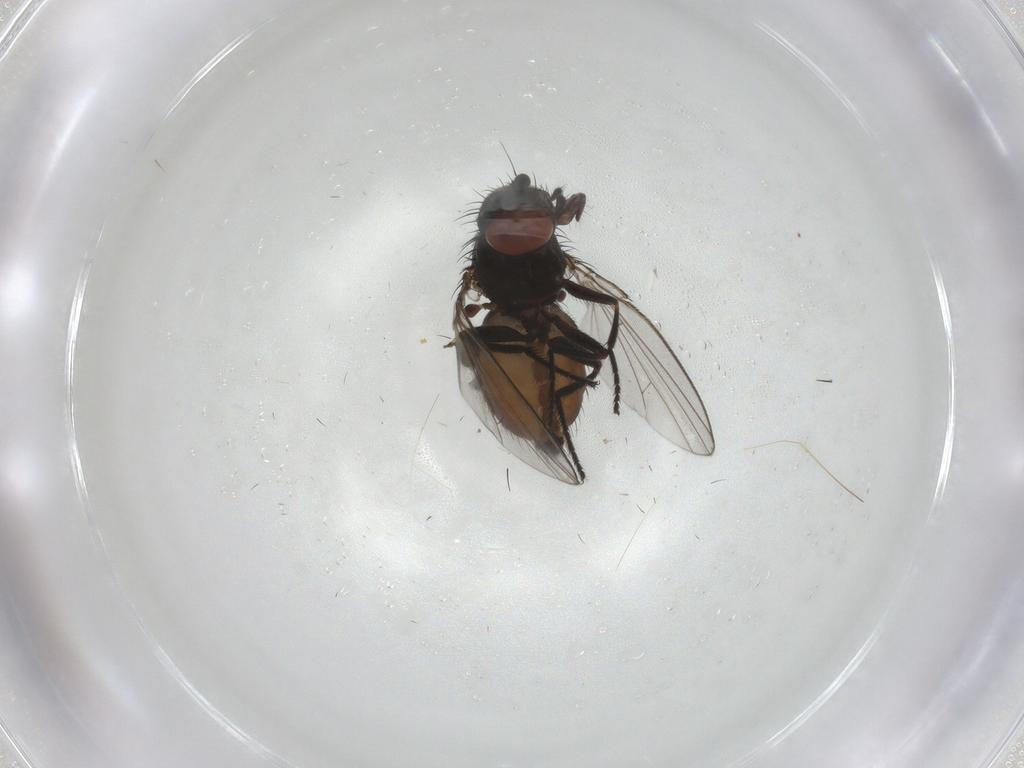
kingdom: Animalia
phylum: Arthropoda
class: Insecta
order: Diptera
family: Milichiidae
